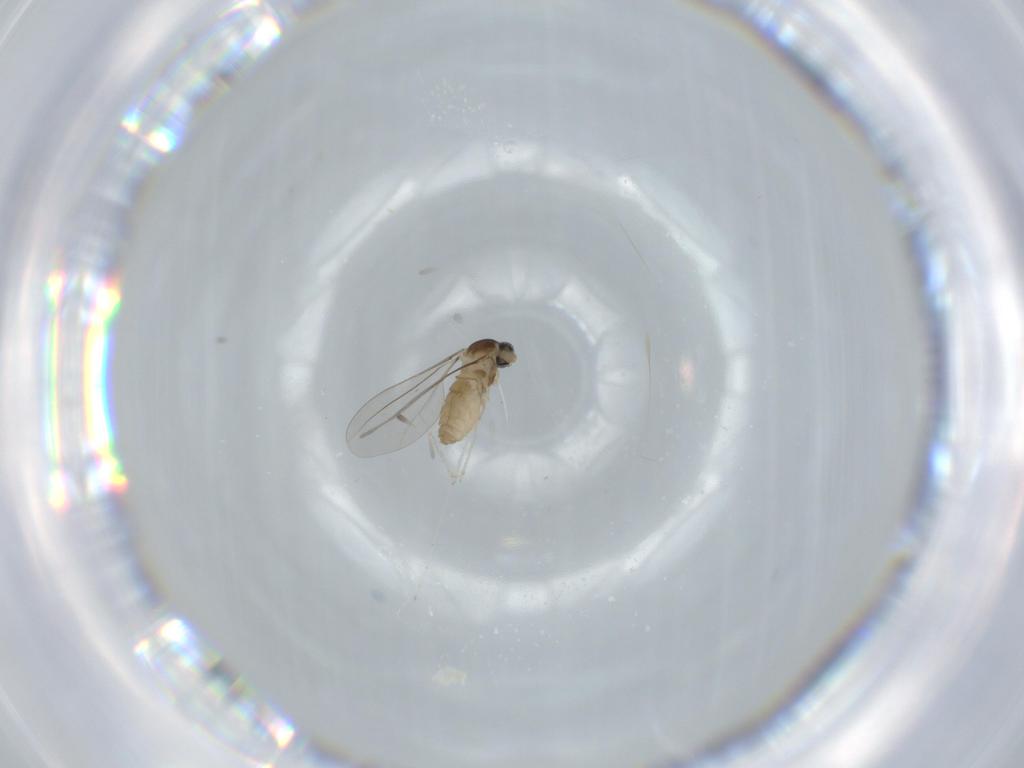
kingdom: Animalia
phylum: Arthropoda
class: Insecta
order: Diptera
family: Cecidomyiidae
